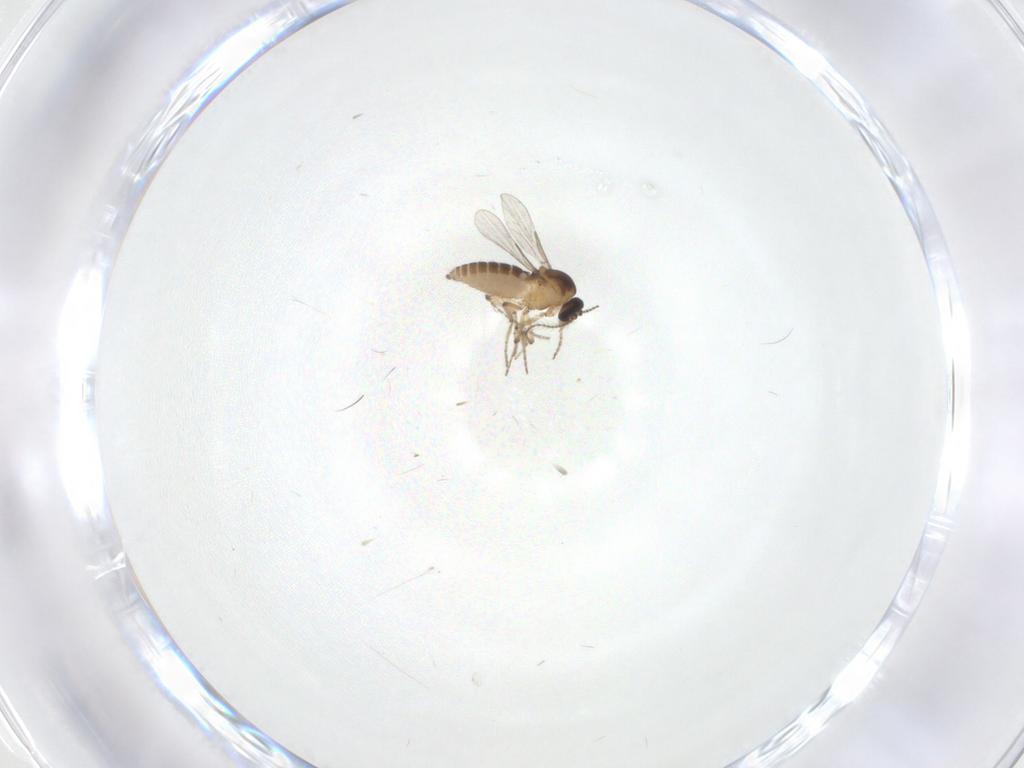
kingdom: Animalia
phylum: Arthropoda
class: Insecta
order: Diptera
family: Ceratopogonidae
